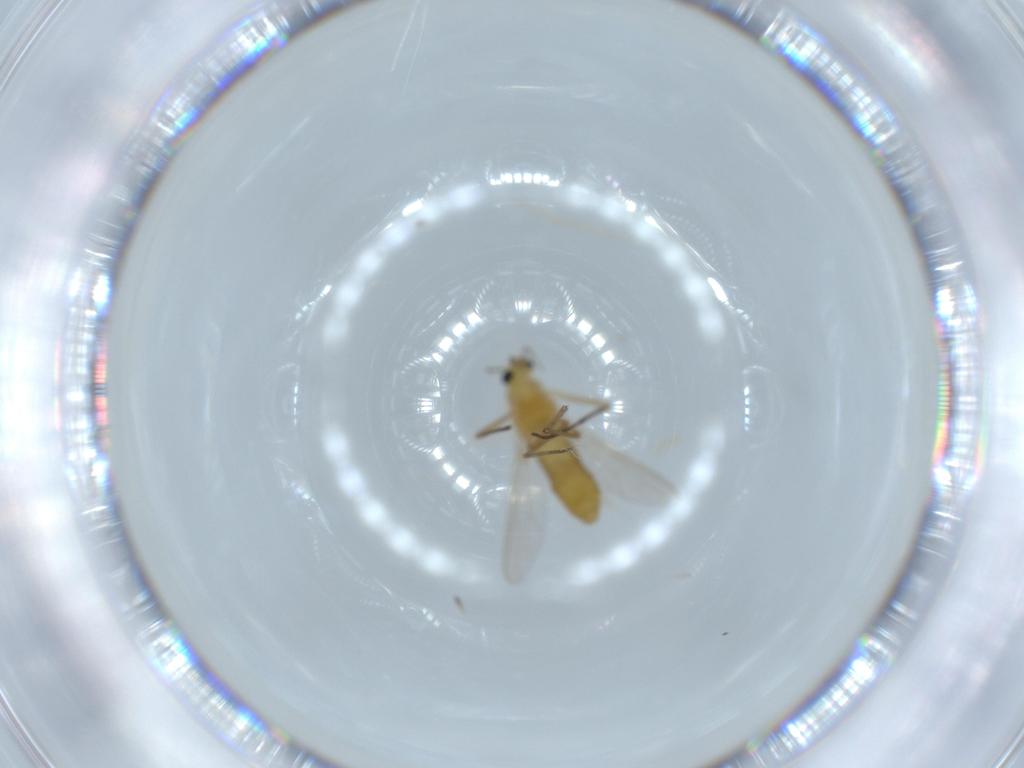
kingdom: Animalia
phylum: Arthropoda
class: Insecta
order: Diptera
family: Chironomidae
